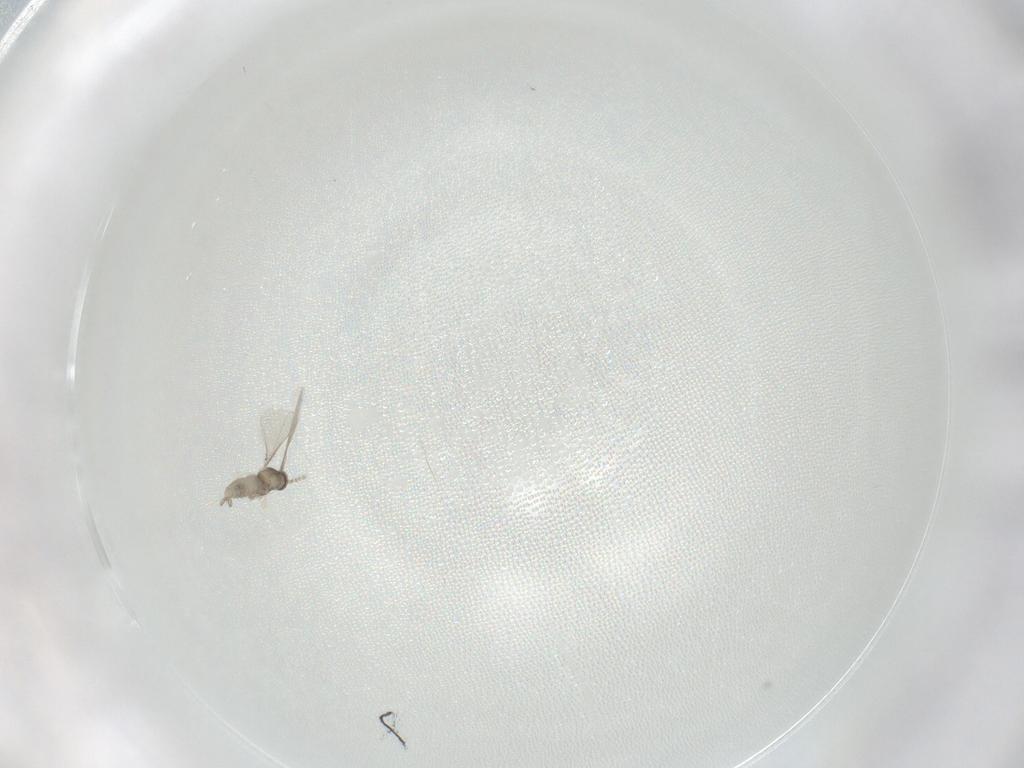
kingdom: Animalia
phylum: Arthropoda
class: Insecta
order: Diptera
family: Cecidomyiidae
